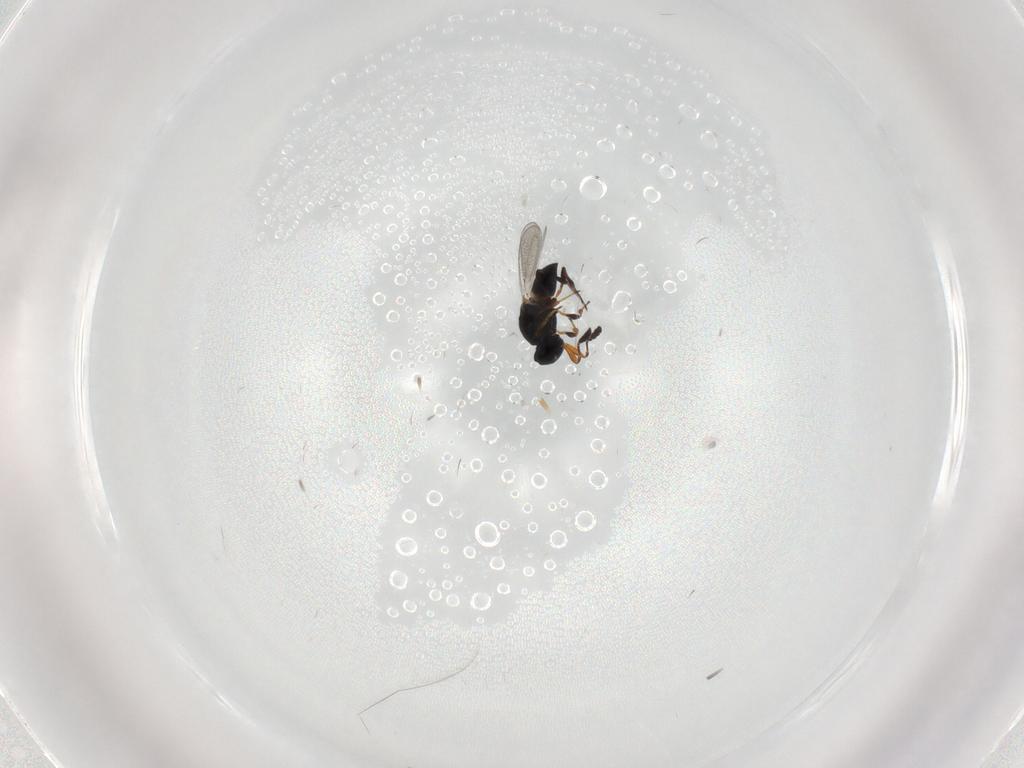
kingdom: Animalia
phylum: Arthropoda
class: Insecta
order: Hymenoptera
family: Platygastridae
